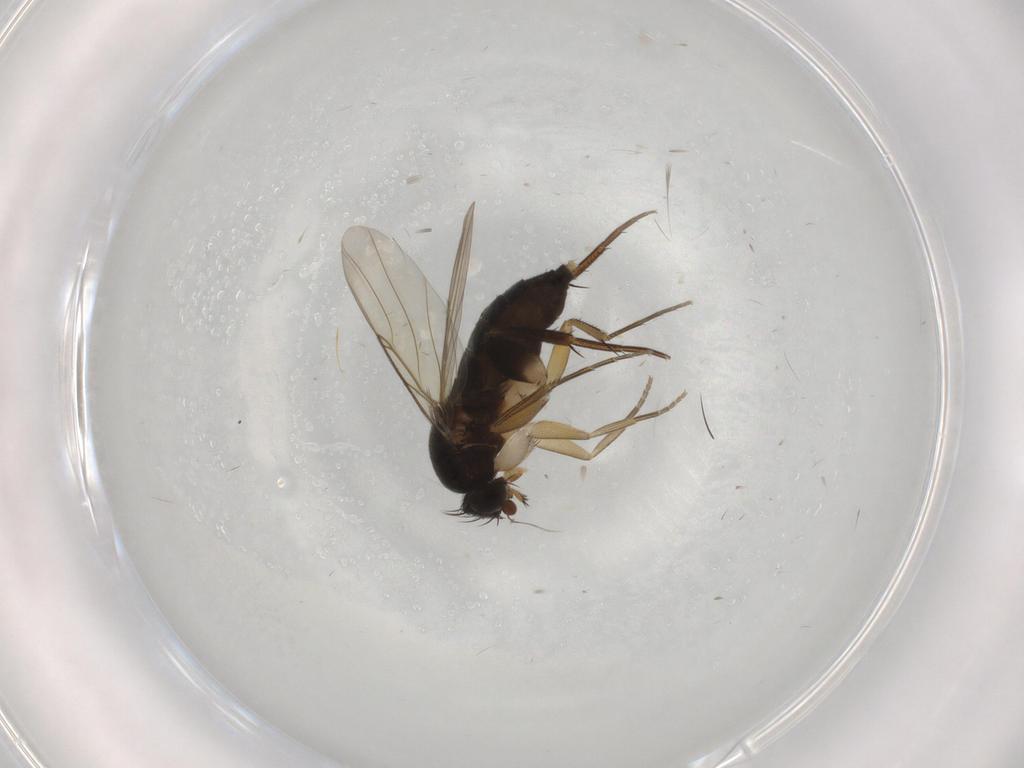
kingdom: Animalia
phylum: Arthropoda
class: Insecta
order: Diptera
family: Phoridae
